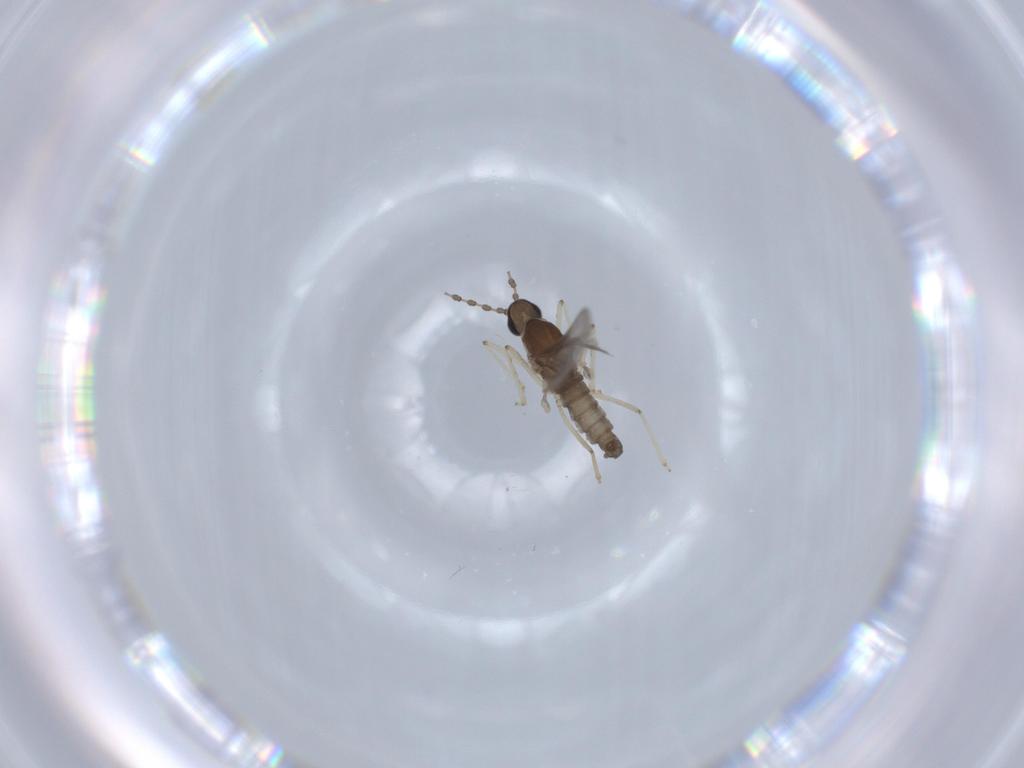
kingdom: Animalia
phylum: Arthropoda
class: Insecta
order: Diptera
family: Cecidomyiidae
